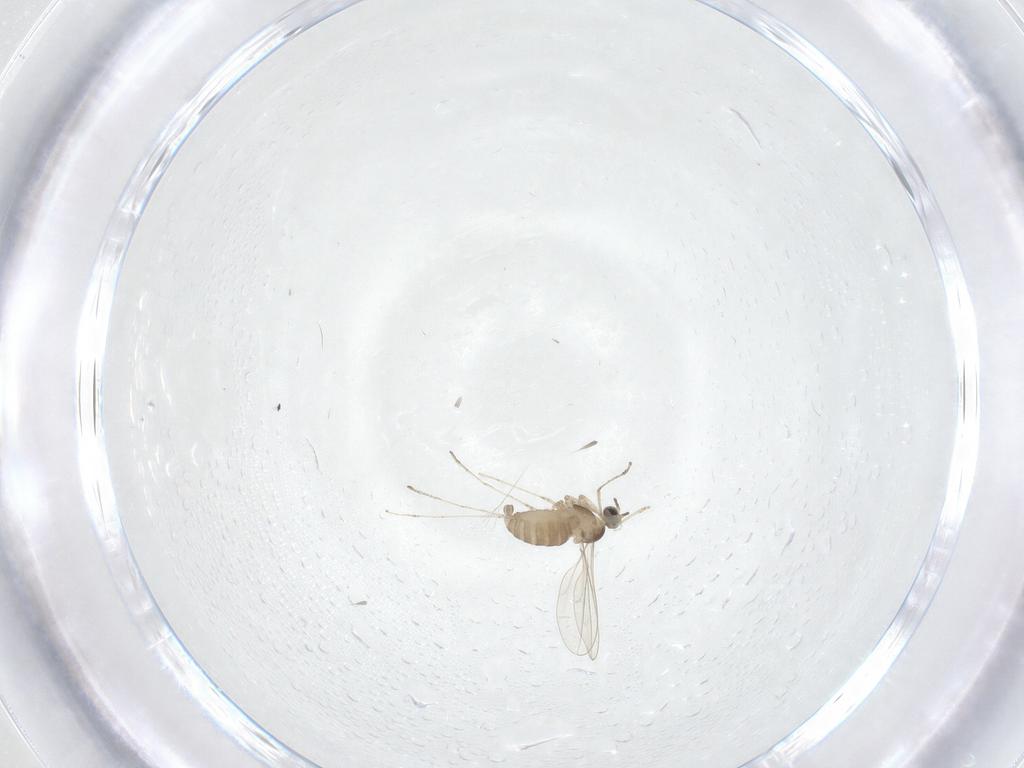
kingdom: Animalia
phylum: Arthropoda
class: Insecta
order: Diptera
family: Cecidomyiidae
